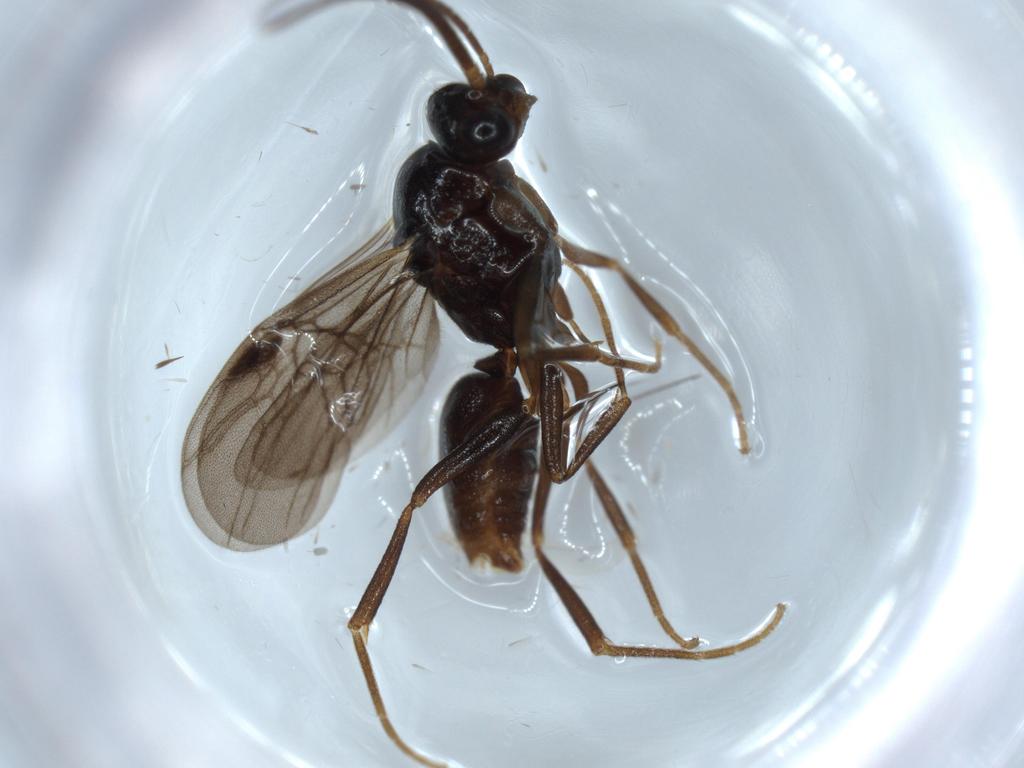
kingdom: Animalia
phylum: Arthropoda
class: Insecta
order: Hymenoptera
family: Formicidae
